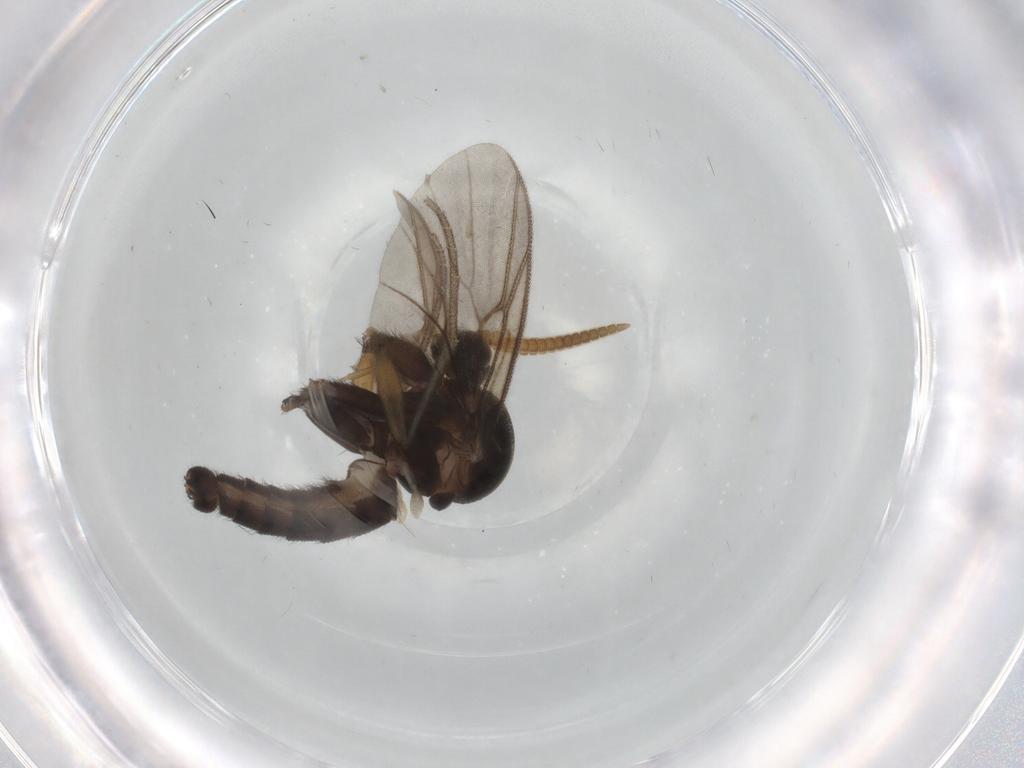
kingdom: Animalia
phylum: Arthropoda
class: Insecta
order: Diptera
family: Chironomidae
